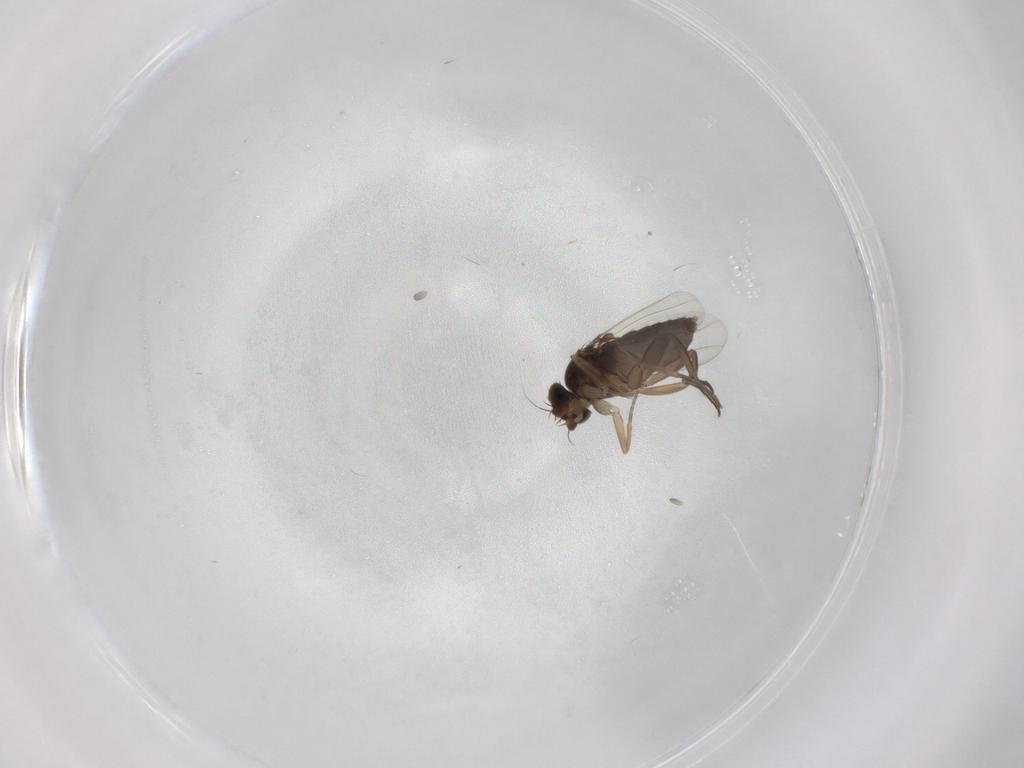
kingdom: Animalia
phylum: Arthropoda
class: Insecta
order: Diptera
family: Phoridae
